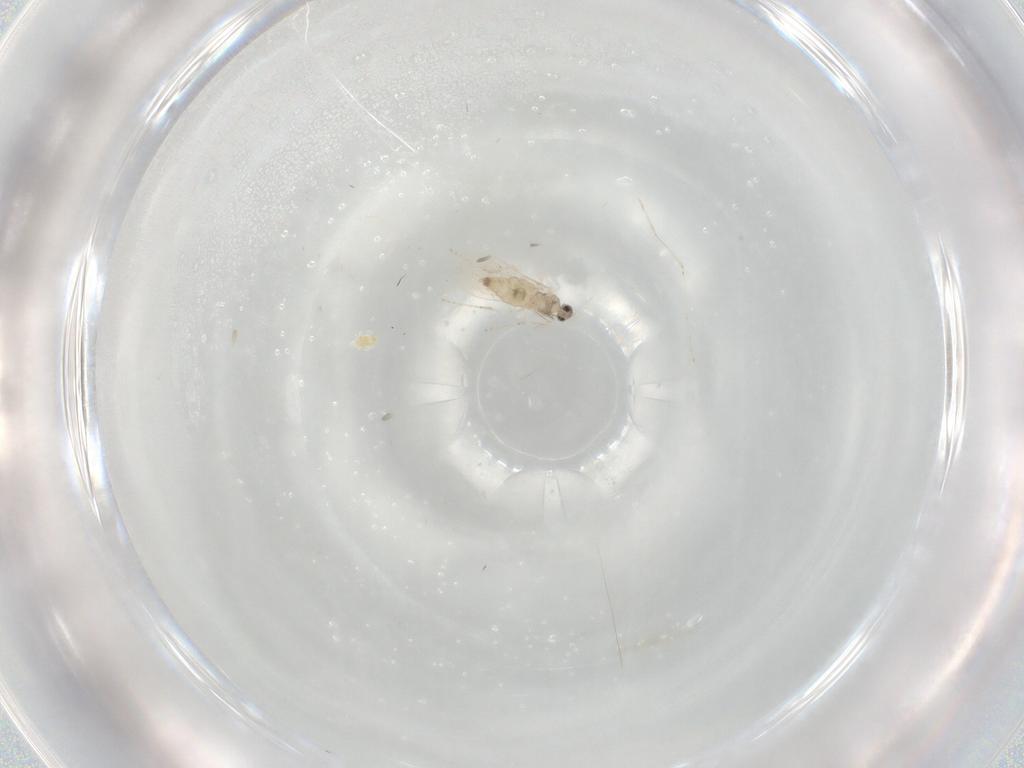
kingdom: Animalia
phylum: Arthropoda
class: Insecta
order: Diptera
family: Cecidomyiidae
